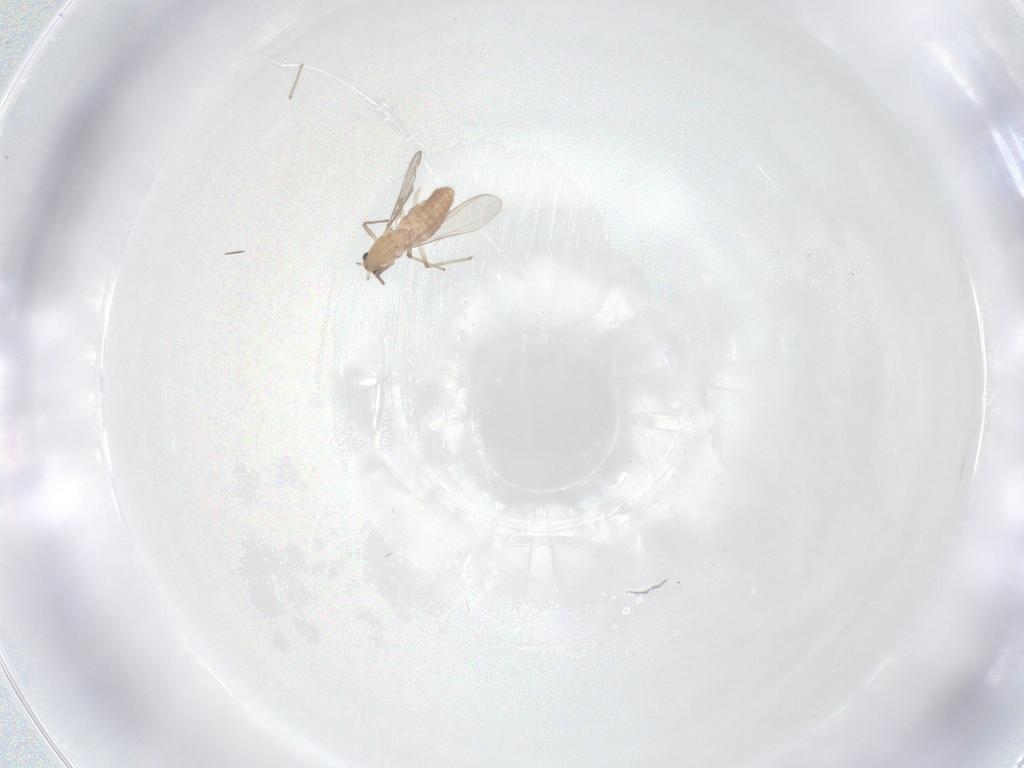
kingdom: Animalia
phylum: Arthropoda
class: Insecta
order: Diptera
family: Chironomidae
